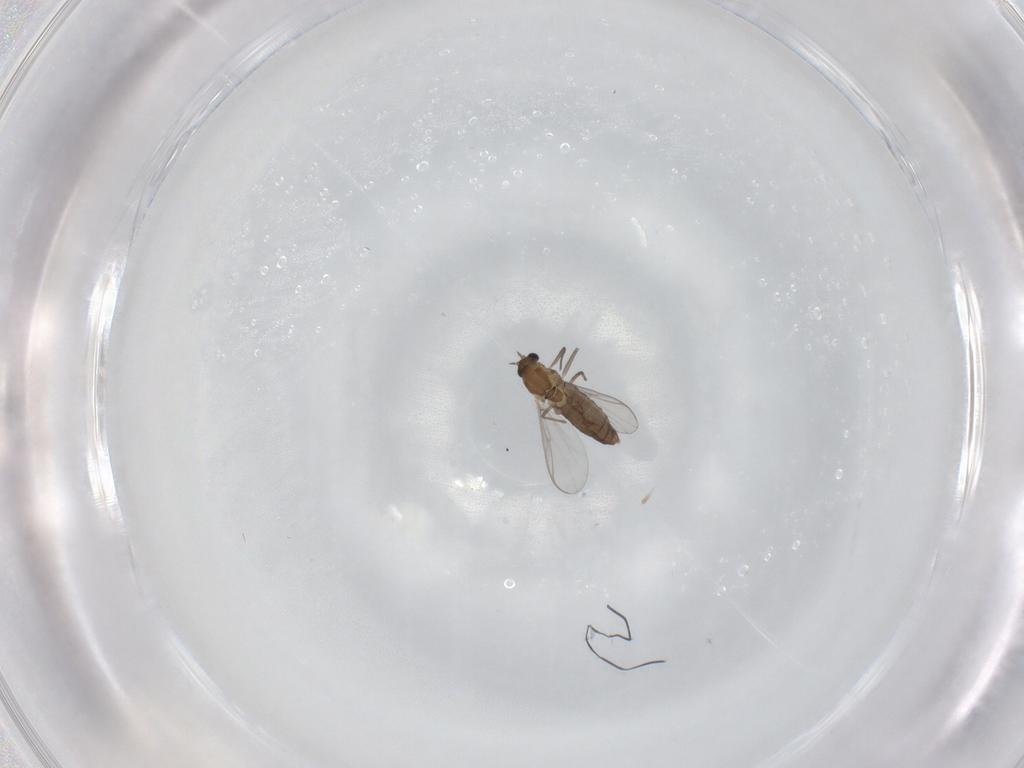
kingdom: Animalia
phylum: Arthropoda
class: Insecta
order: Diptera
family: Chironomidae
